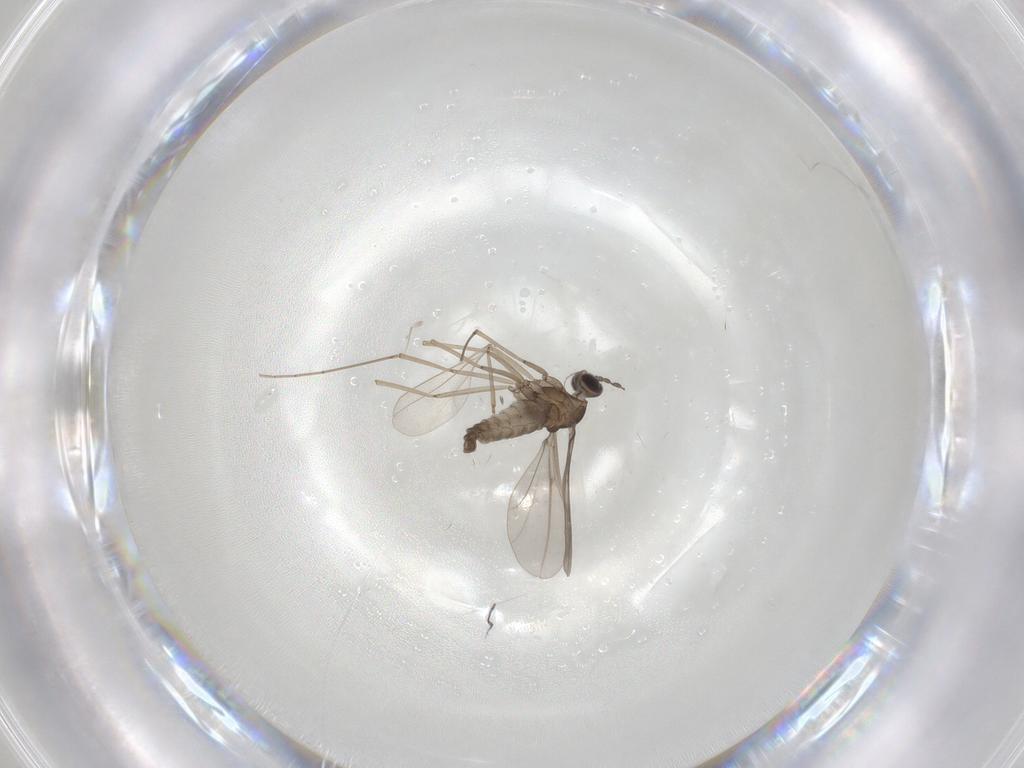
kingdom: Animalia
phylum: Arthropoda
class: Insecta
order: Diptera
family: Cecidomyiidae
